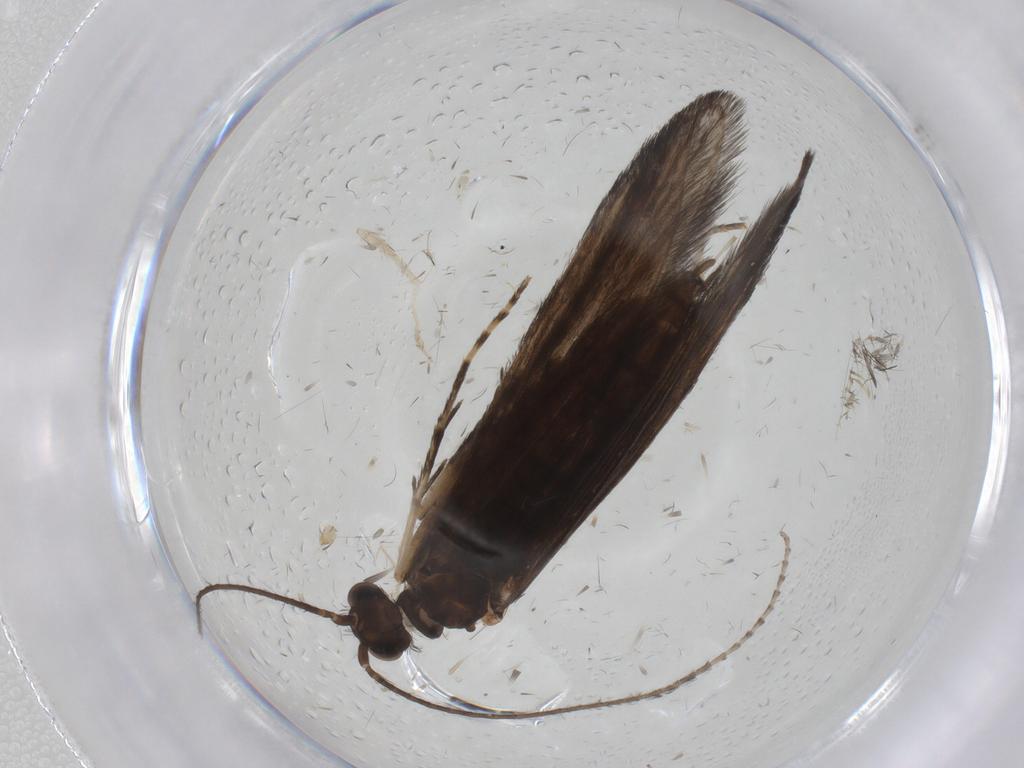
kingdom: Animalia
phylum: Arthropoda
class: Insecta
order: Trichoptera
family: Xiphocentronidae
